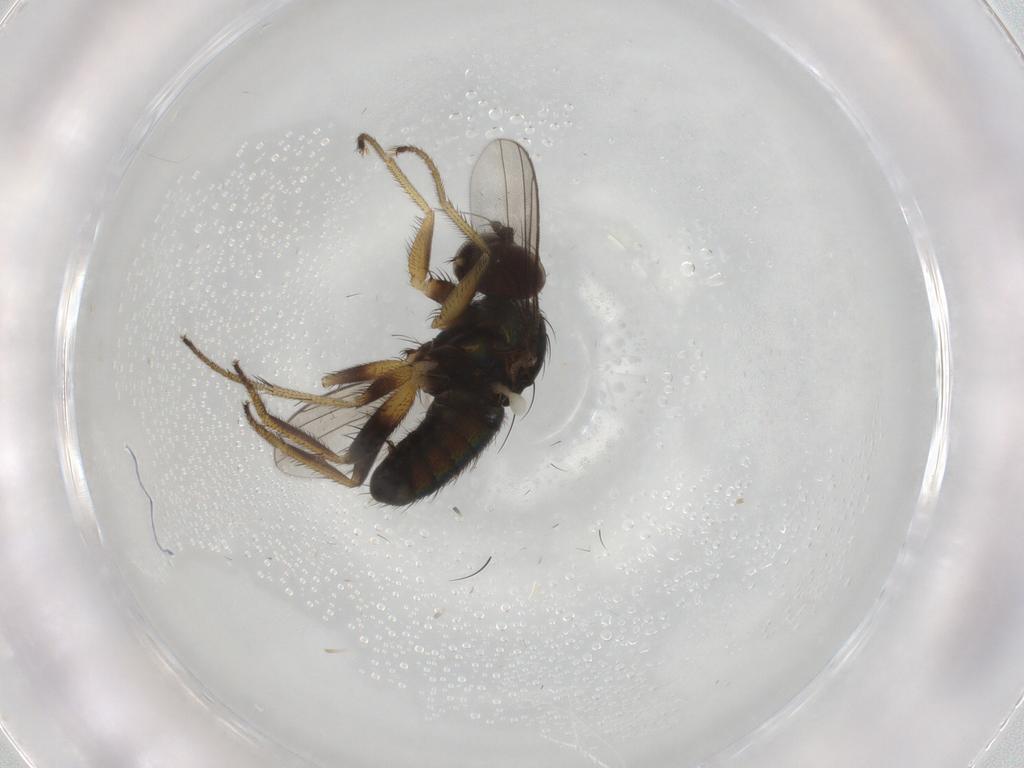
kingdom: Animalia
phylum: Arthropoda
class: Insecta
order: Diptera
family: Dolichopodidae
